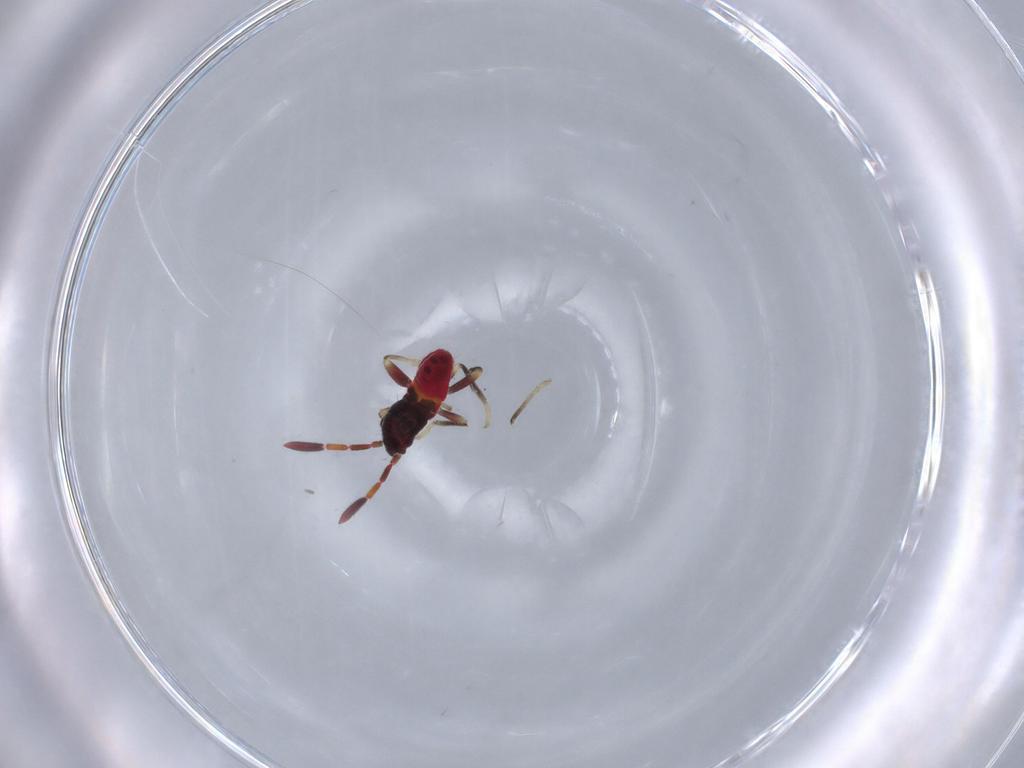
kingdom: Animalia
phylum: Arthropoda
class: Insecta
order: Hemiptera
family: Rhyparochromidae
